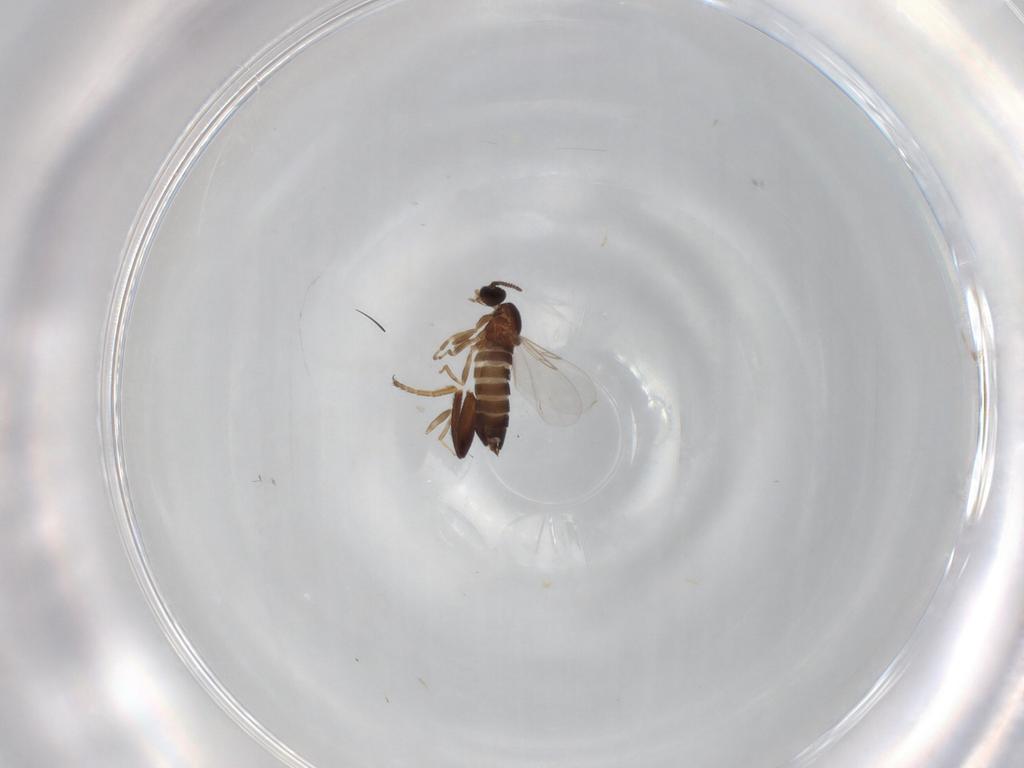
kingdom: Animalia
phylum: Arthropoda
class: Insecta
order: Diptera
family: Scatopsidae
